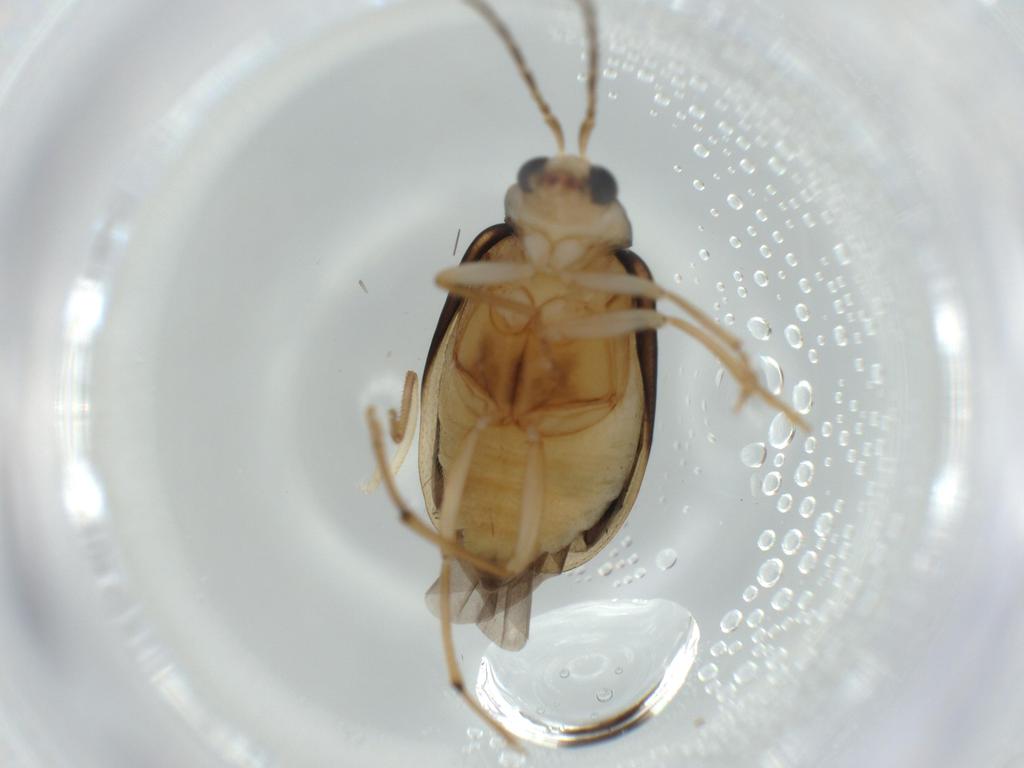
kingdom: Animalia
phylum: Arthropoda
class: Insecta
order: Coleoptera
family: Chrysomelidae
